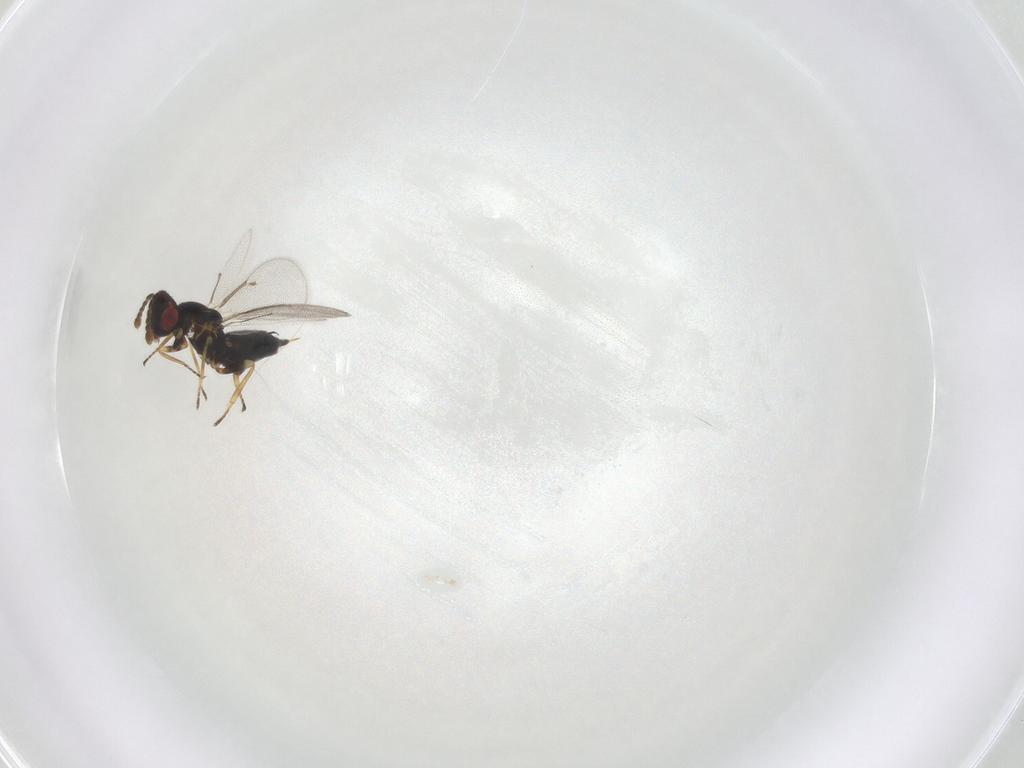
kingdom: Animalia
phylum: Arthropoda
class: Insecta
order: Hymenoptera
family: Eulophidae
